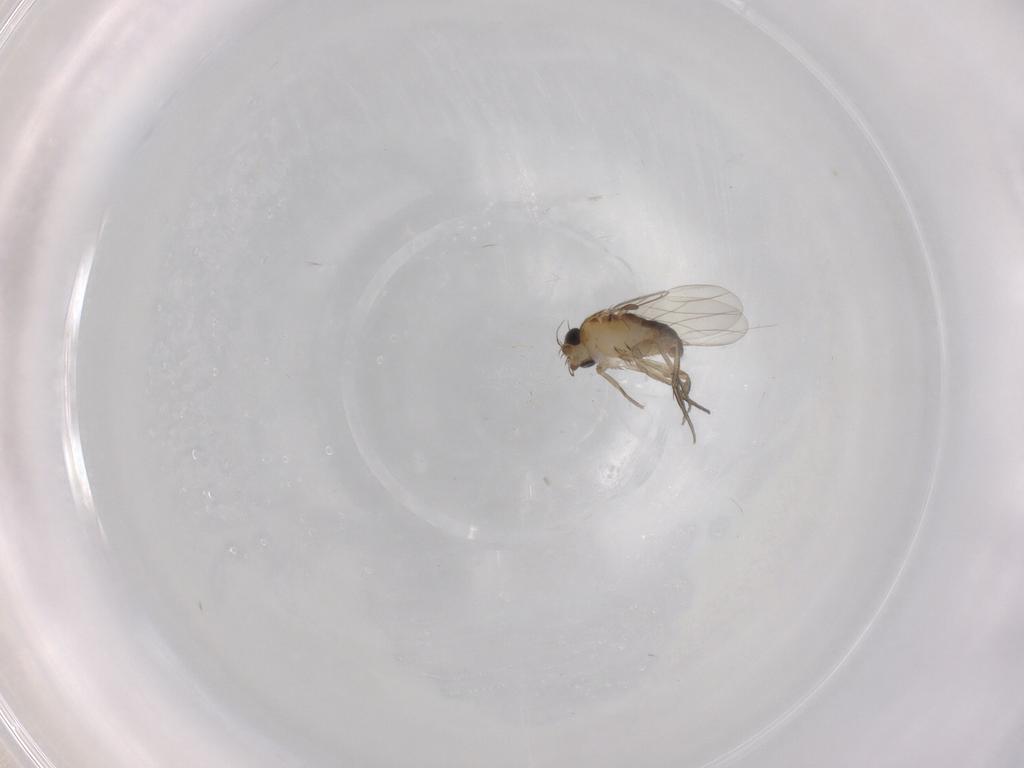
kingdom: Animalia
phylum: Arthropoda
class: Insecta
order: Diptera
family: Phoridae
